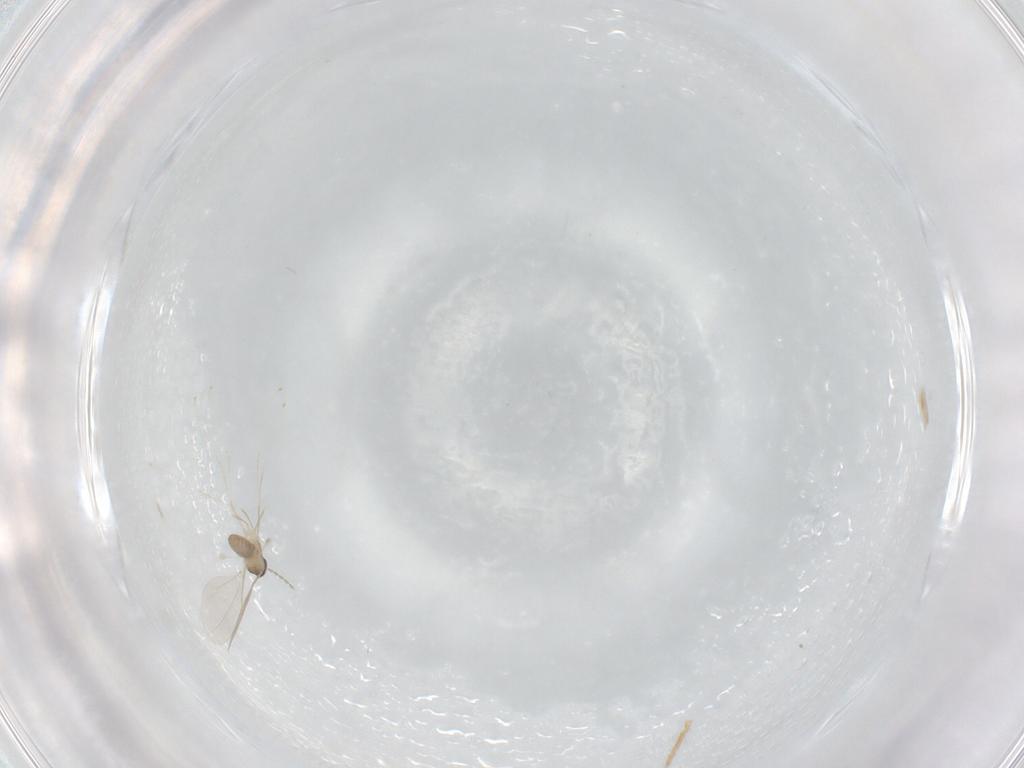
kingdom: Animalia
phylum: Arthropoda
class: Insecta
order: Diptera
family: Cecidomyiidae
